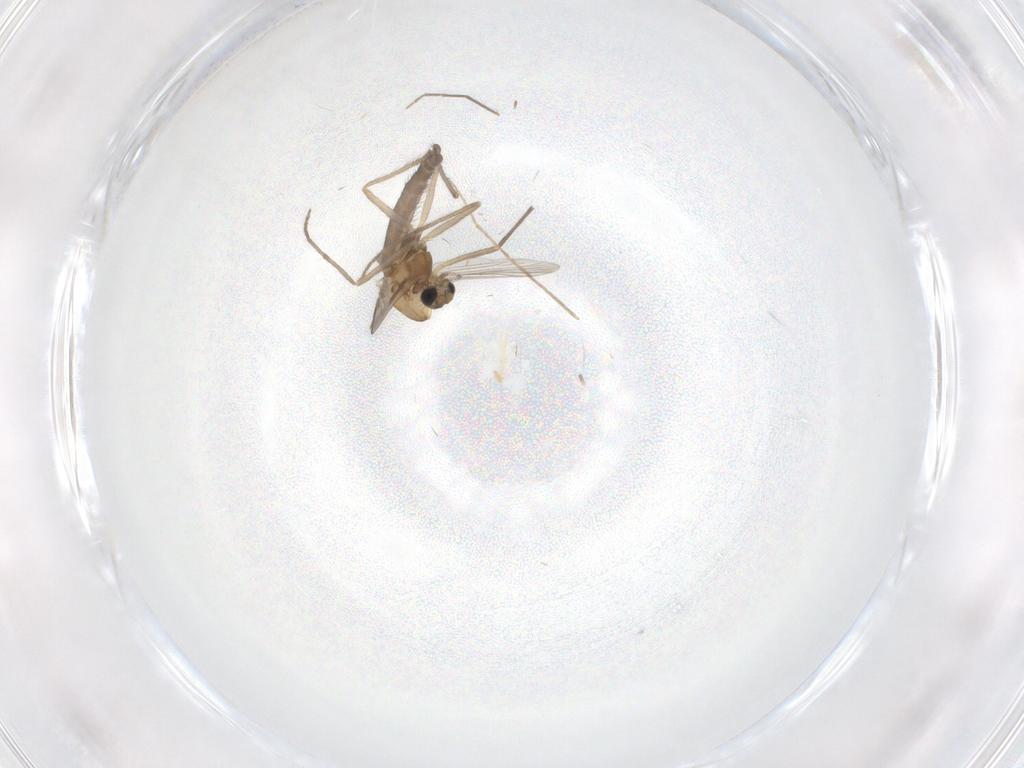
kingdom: Animalia
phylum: Arthropoda
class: Insecta
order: Diptera
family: Chironomidae
